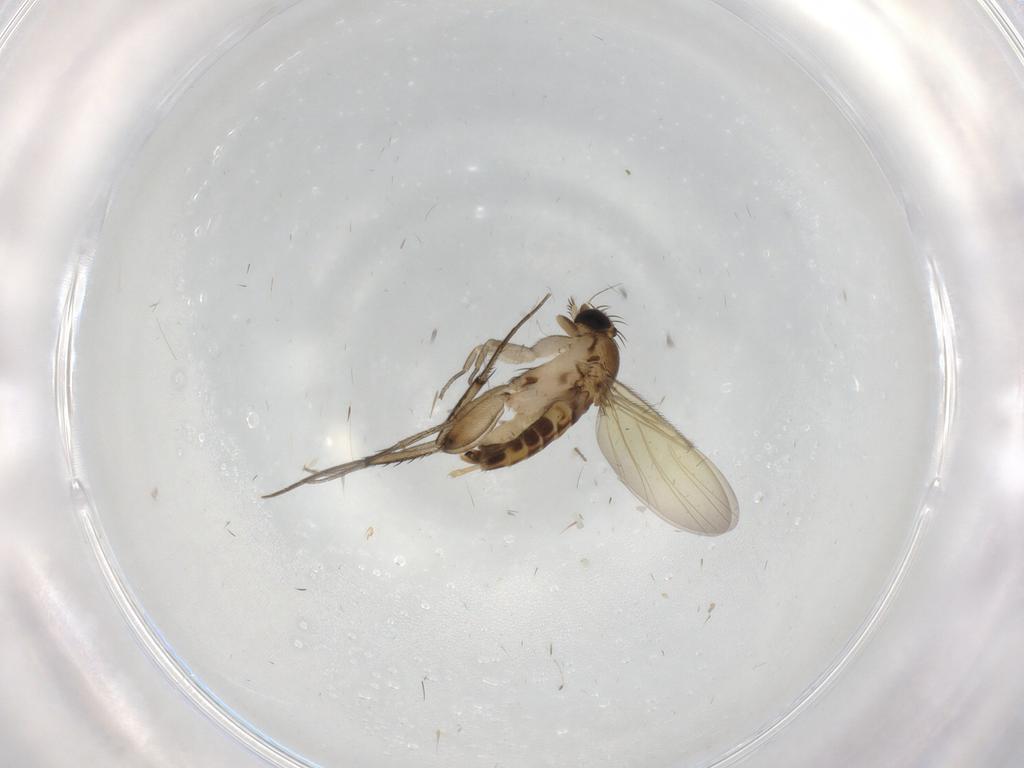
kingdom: Animalia
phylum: Arthropoda
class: Insecta
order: Diptera
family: Phoridae
